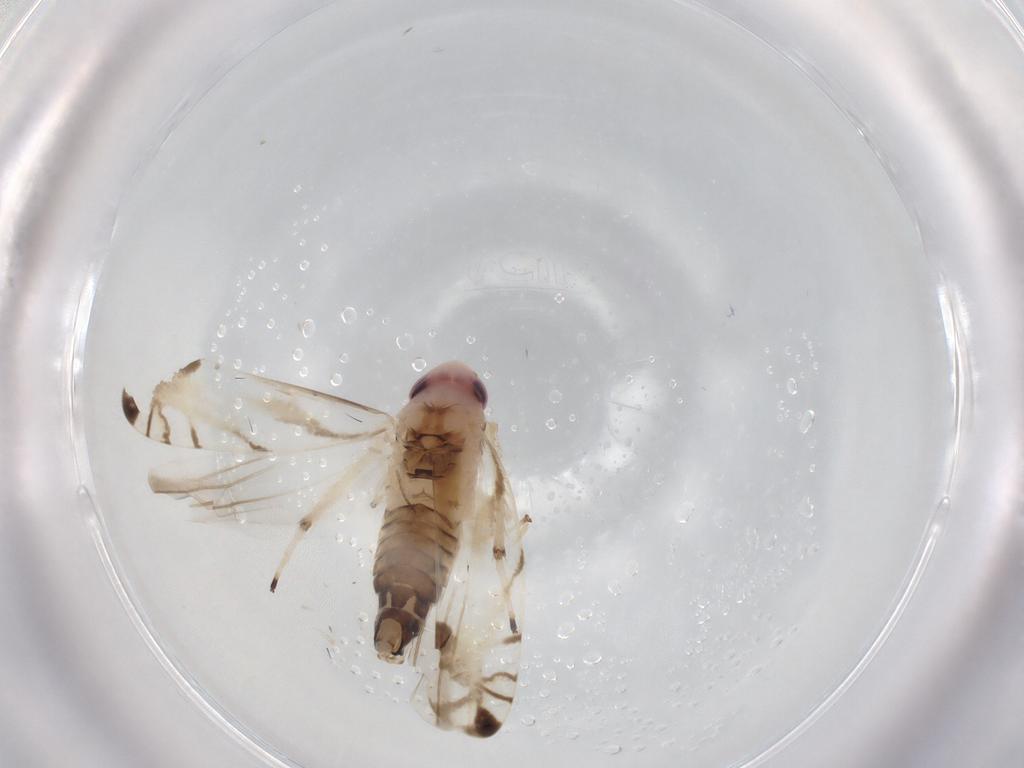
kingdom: Animalia
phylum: Arthropoda
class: Insecta
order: Hemiptera
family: Cicadellidae
